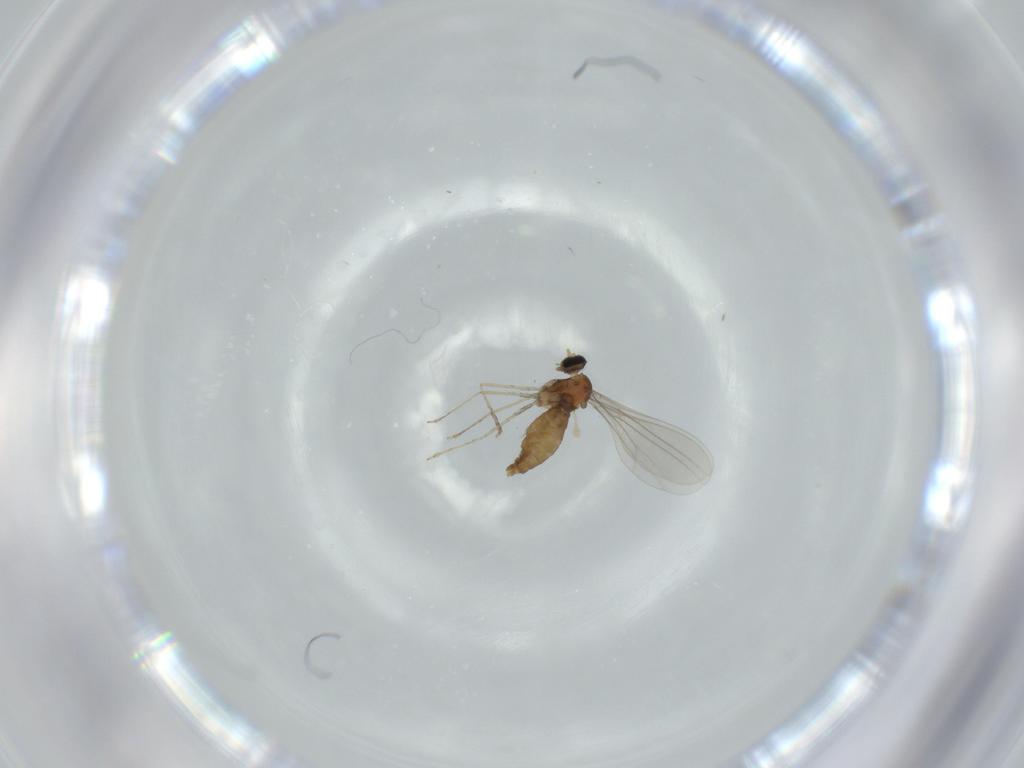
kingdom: Animalia
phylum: Arthropoda
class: Insecta
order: Diptera
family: Cecidomyiidae
